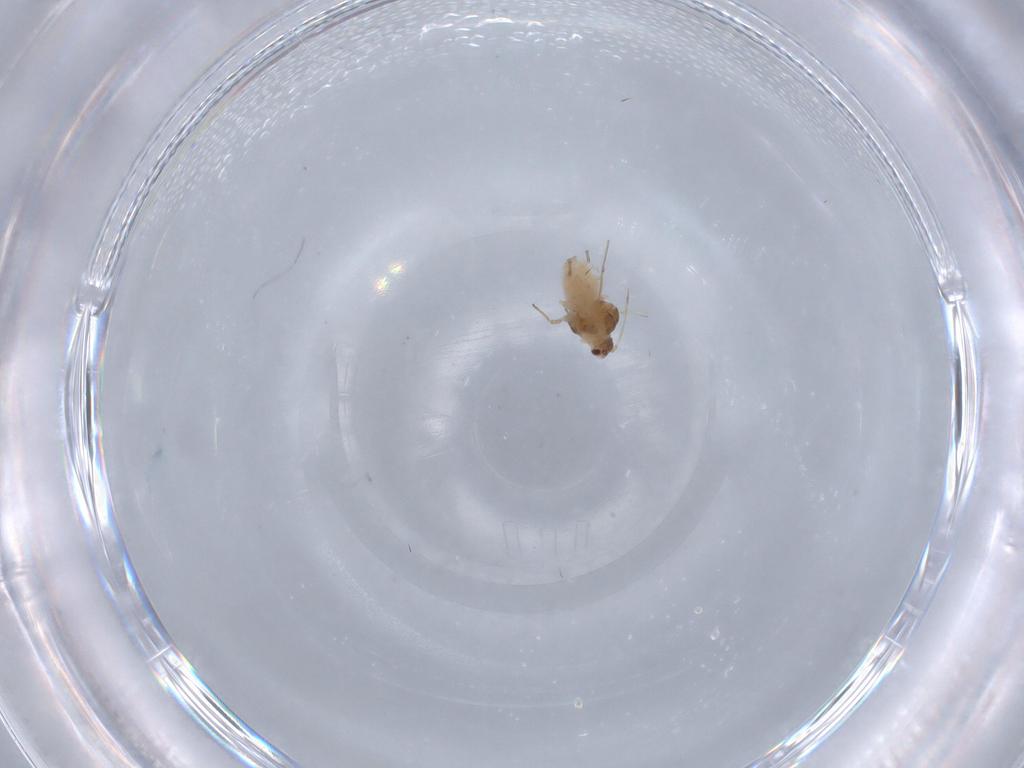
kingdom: Animalia
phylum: Arthropoda
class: Insecta
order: Hemiptera
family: Aphididae
